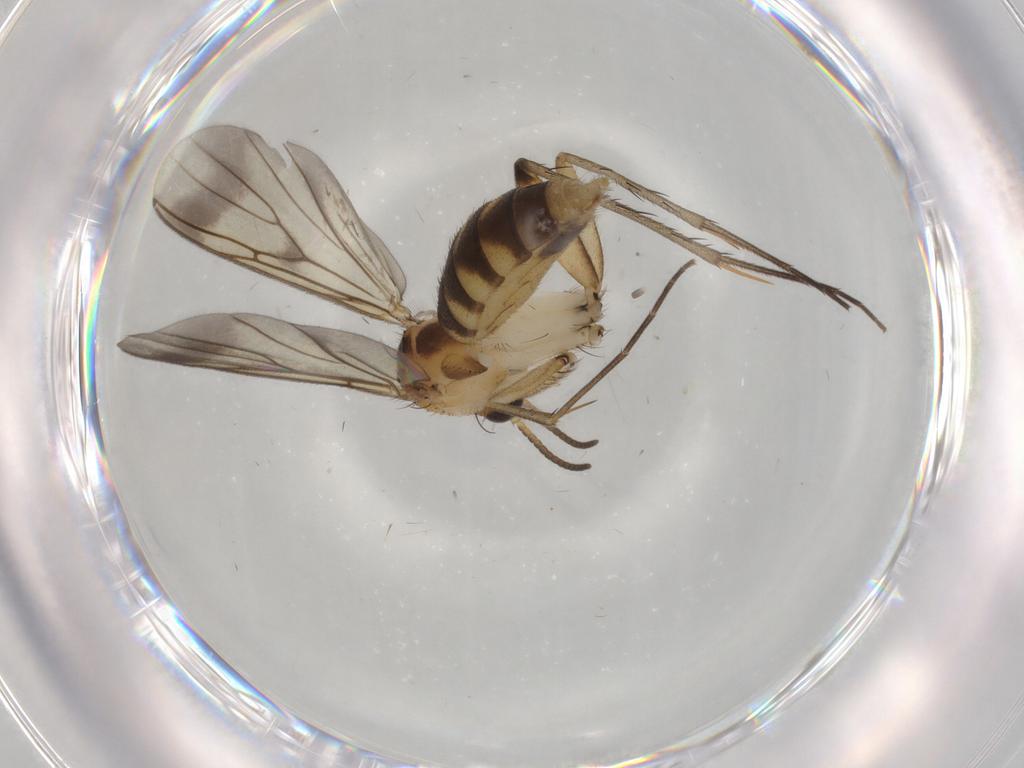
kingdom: Animalia
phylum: Arthropoda
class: Insecta
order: Diptera
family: Mycetophilidae
